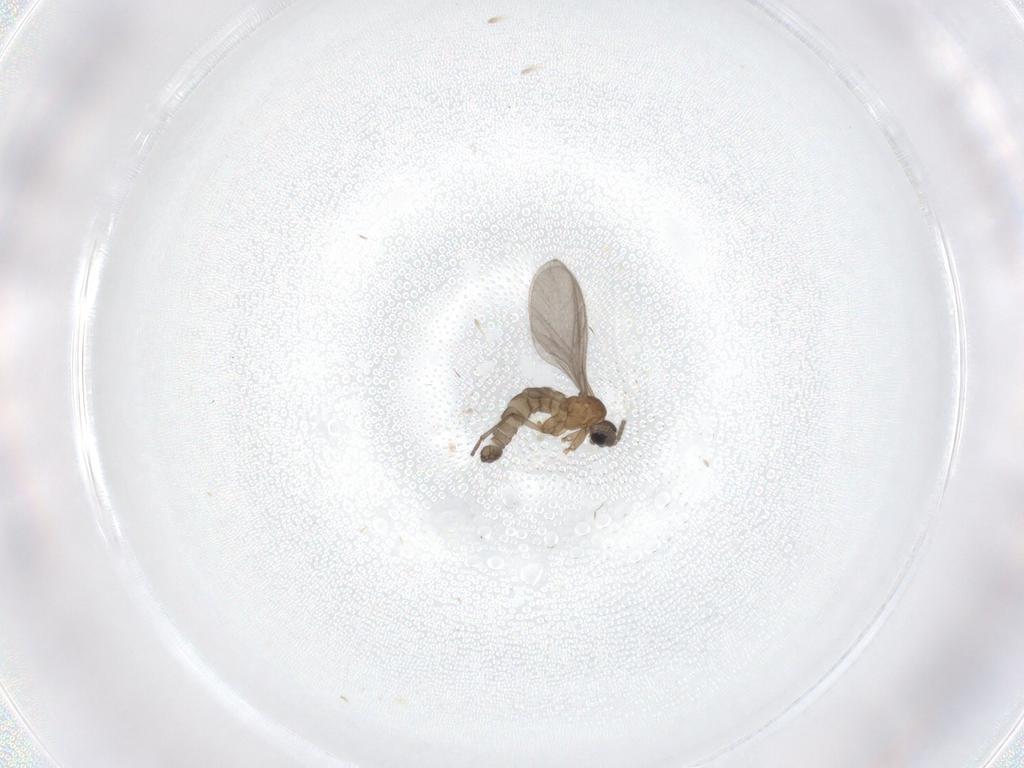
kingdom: Animalia
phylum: Arthropoda
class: Insecta
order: Diptera
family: Sciaridae
